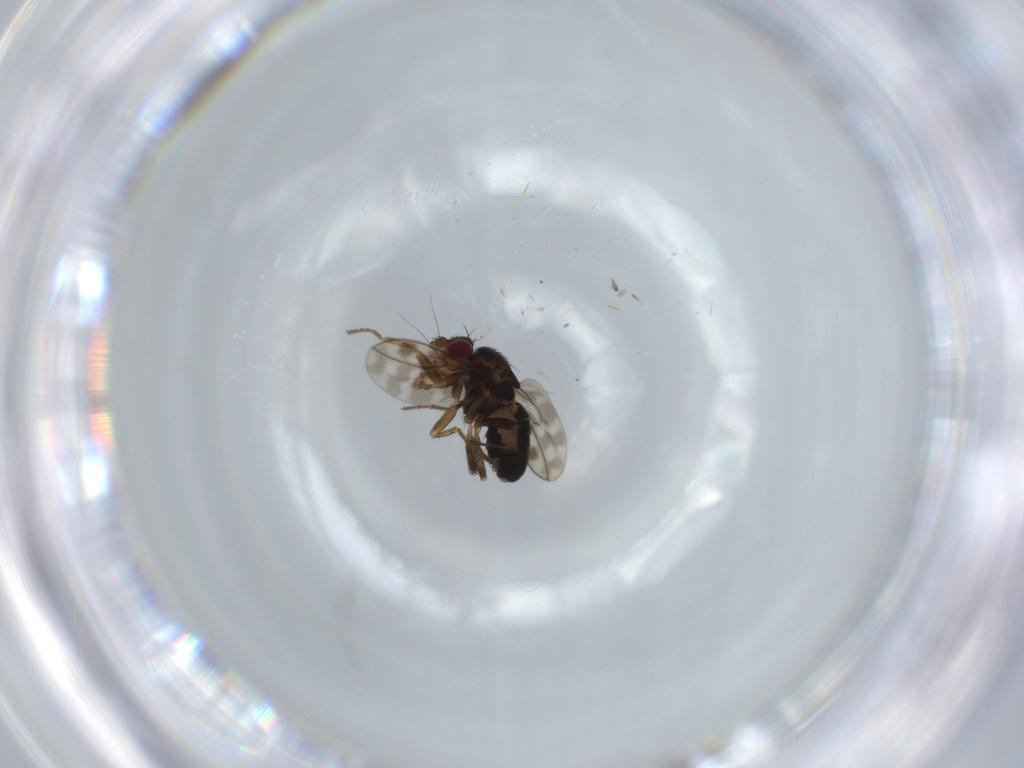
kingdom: Animalia
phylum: Arthropoda
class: Insecta
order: Diptera
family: Sphaeroceridae
